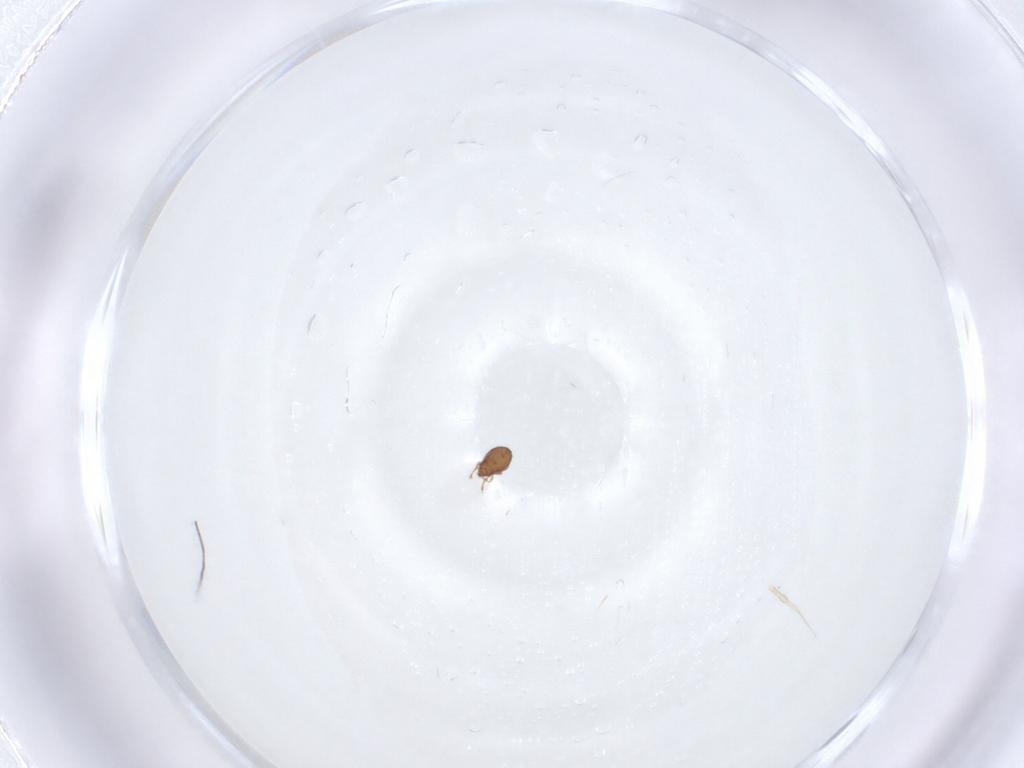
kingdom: Animalia
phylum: Arthropoda
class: Arachnida
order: Sarcoptiformes
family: Dendroeremaeidae
